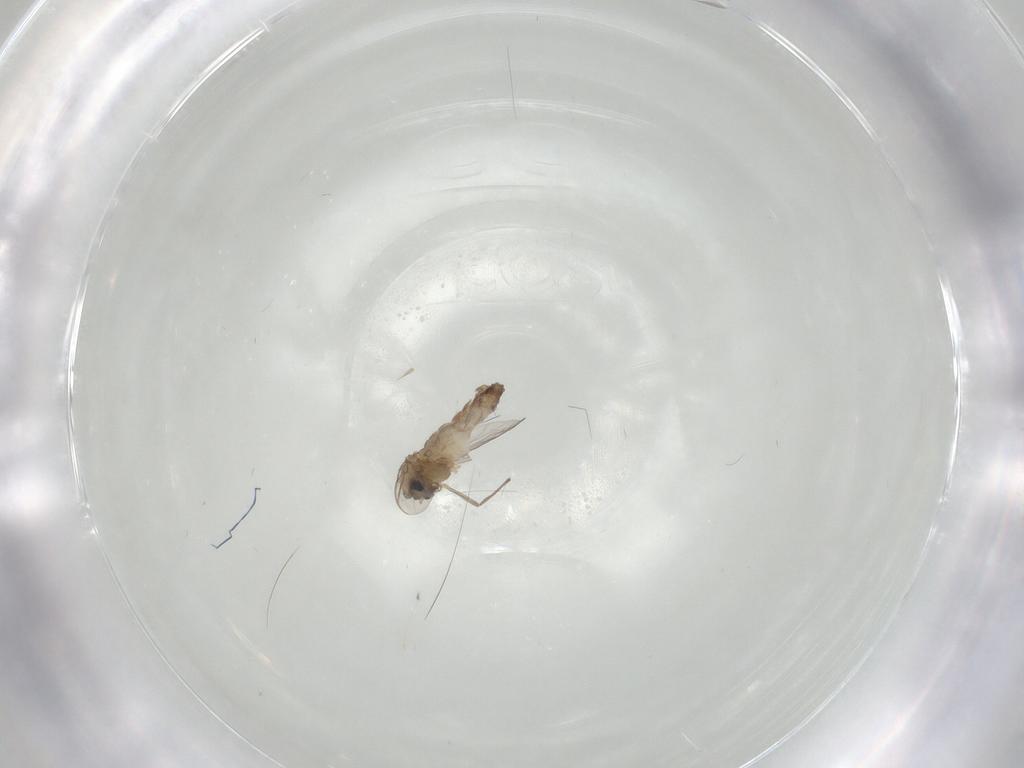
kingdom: Animalia
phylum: Arthropoda
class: Insecta
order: Diptera
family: Chironomidae
